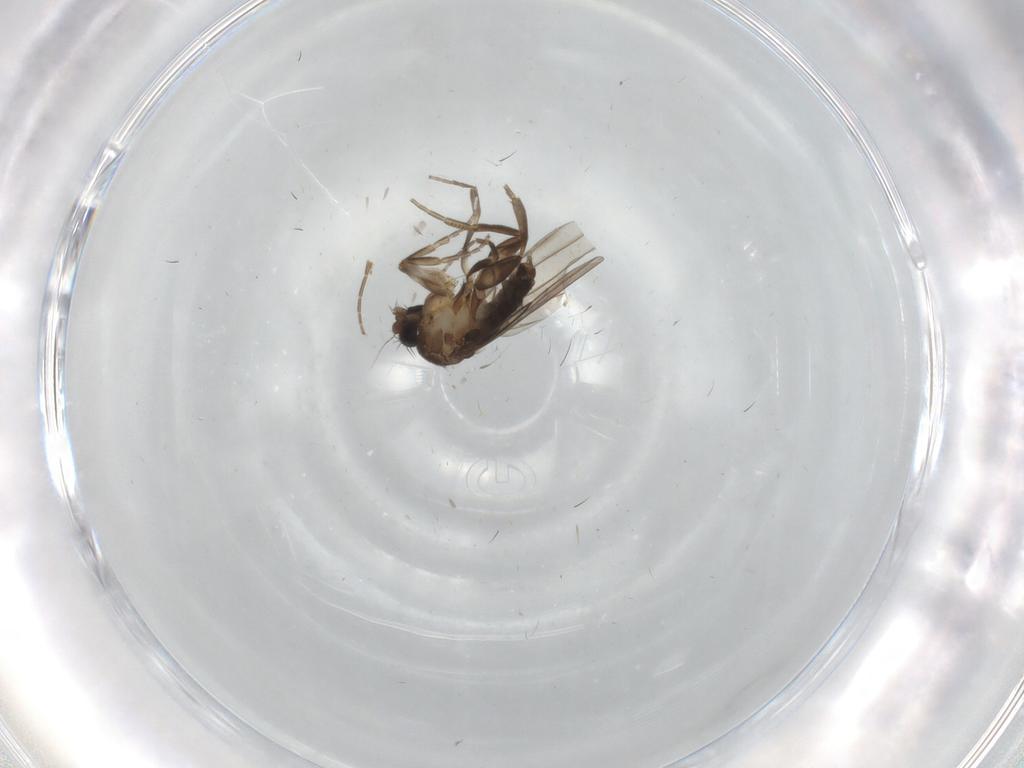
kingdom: Animalia
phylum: Arthropoda
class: Insecta
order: Diptera
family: Phoridae
